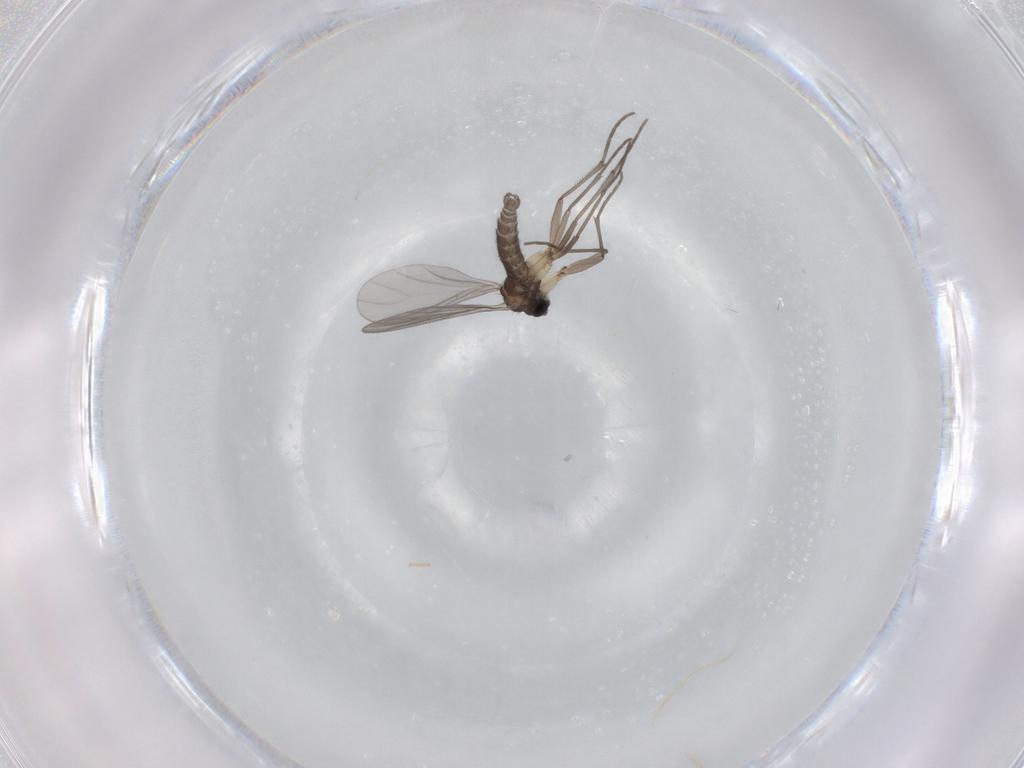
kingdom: Animalia
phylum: Arthropoda
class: Insecta
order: Diptera
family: Sciaridae
